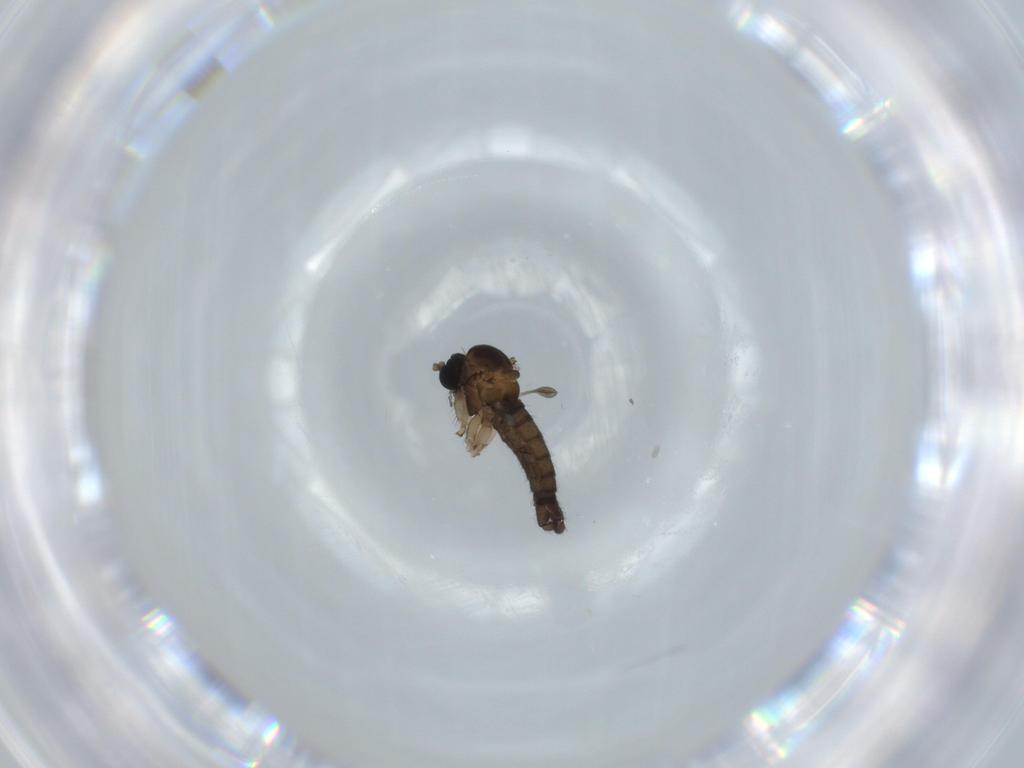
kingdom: Animalia
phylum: Arthropoda
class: Insecta
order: Diptera
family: Sciaridae
